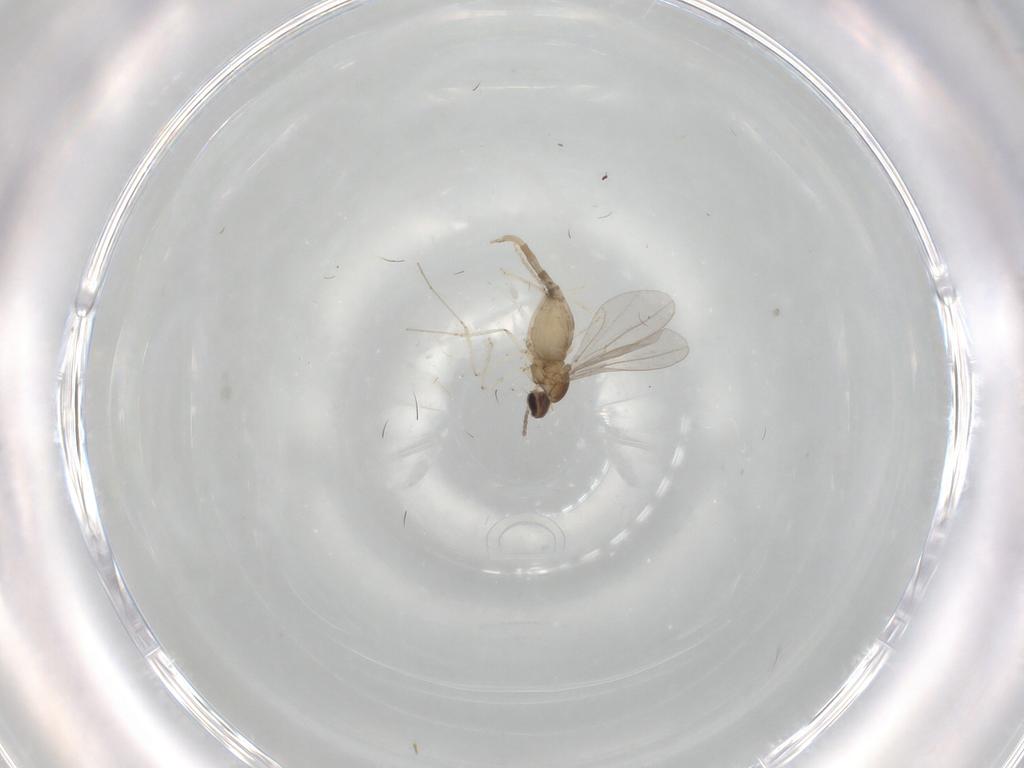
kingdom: Animalia
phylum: Arthropoda
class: Insecta
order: Diptera
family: Cecidomyiidae
